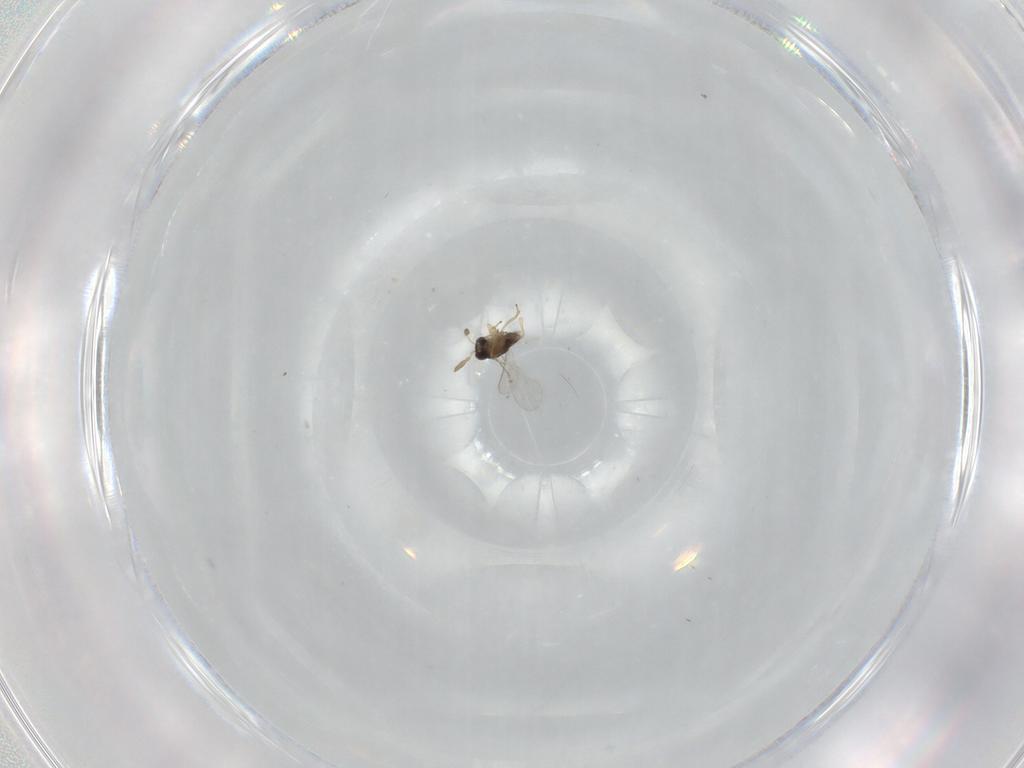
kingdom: Animalia
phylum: Arthropoda
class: Insecta
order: Hymenoptera
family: Encyrtidae
